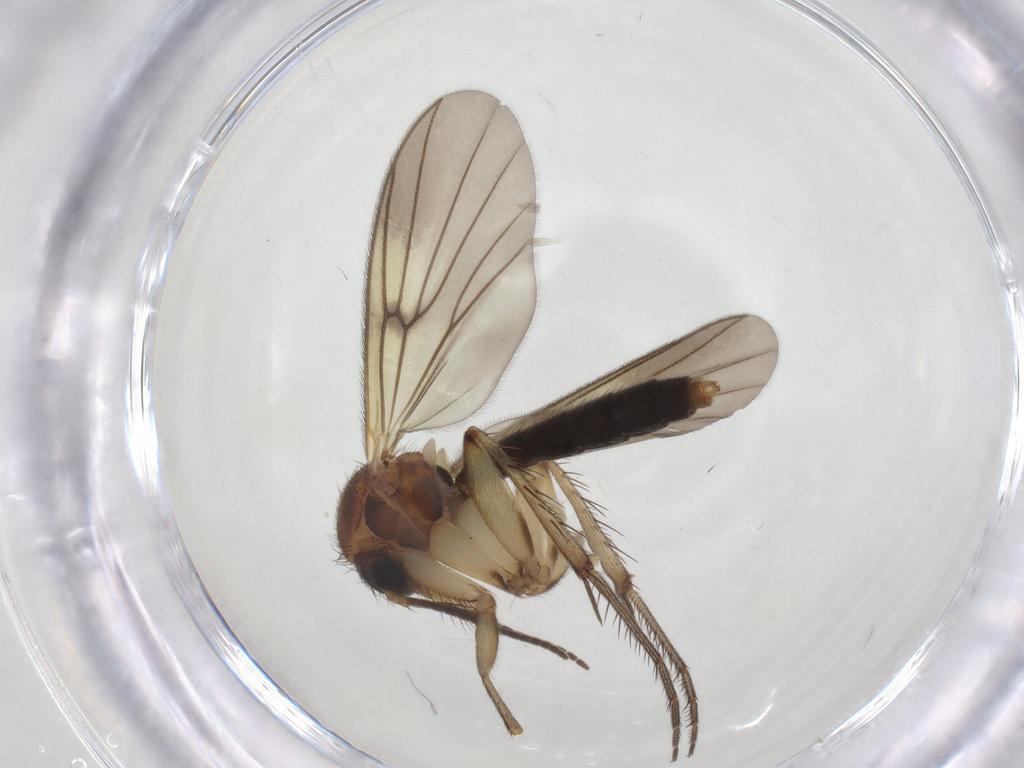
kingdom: Animalia
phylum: Arthropoda
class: Insecta
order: Diptera
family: Mycetophilidae
